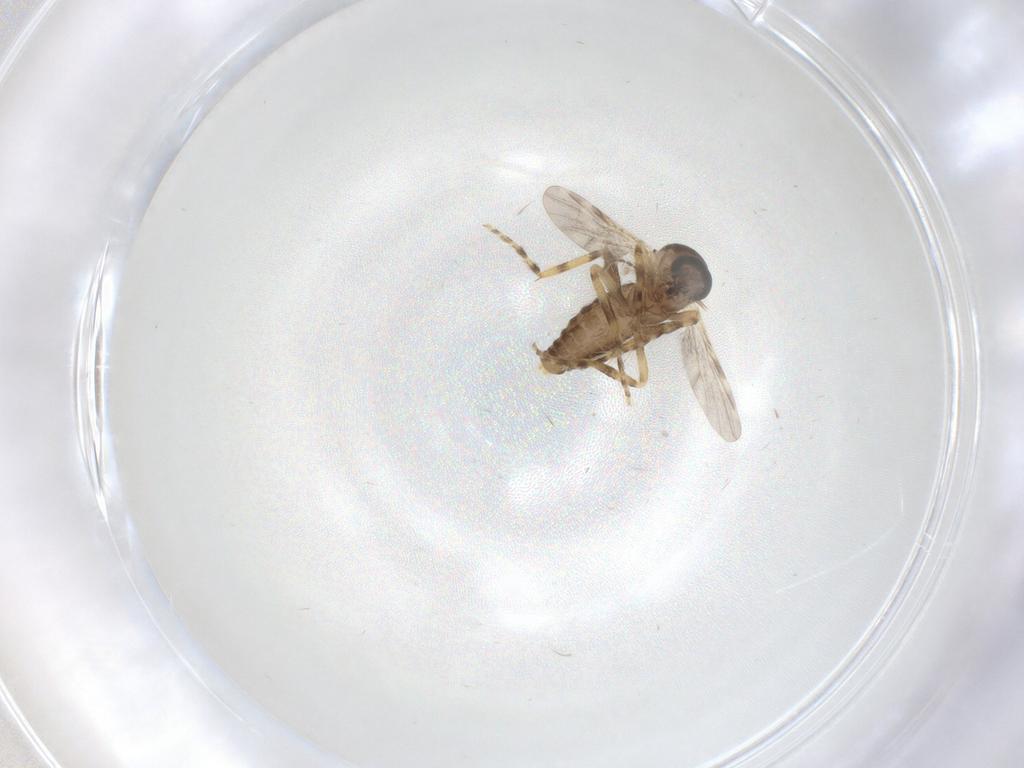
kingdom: Animalia
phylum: Arthropoda
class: Insecta
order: Diptera
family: Ceratopogonidae
